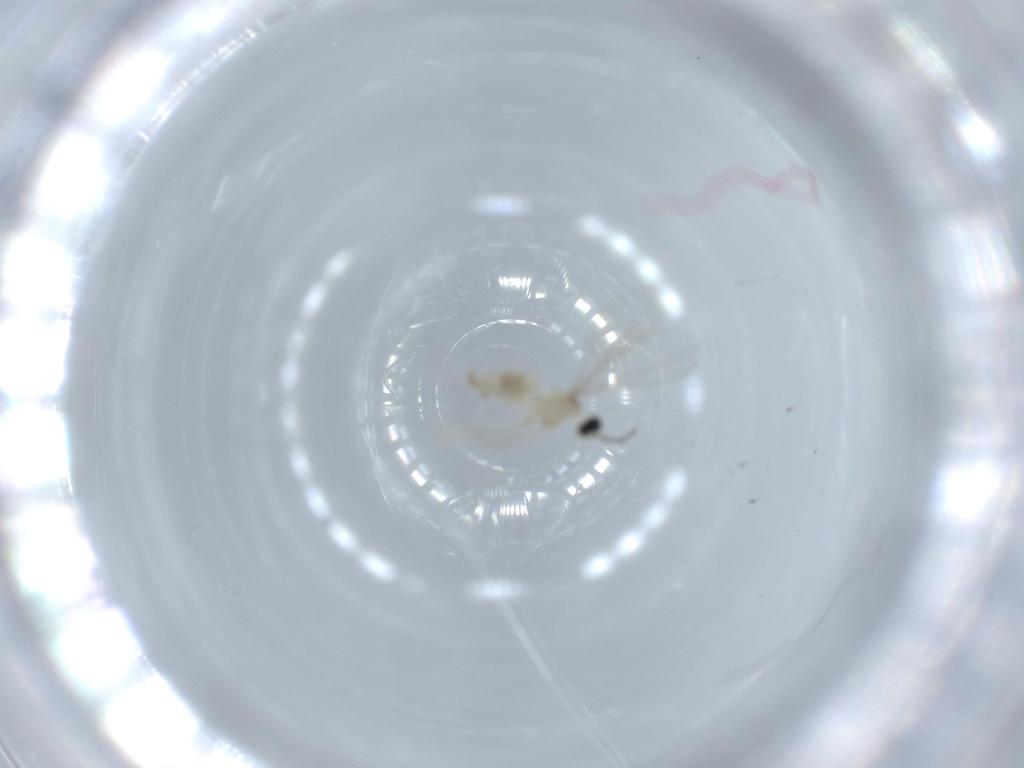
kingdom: Animalia
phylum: Arthropoda
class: Insecta
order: Diptera
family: Cecidomyiidae
